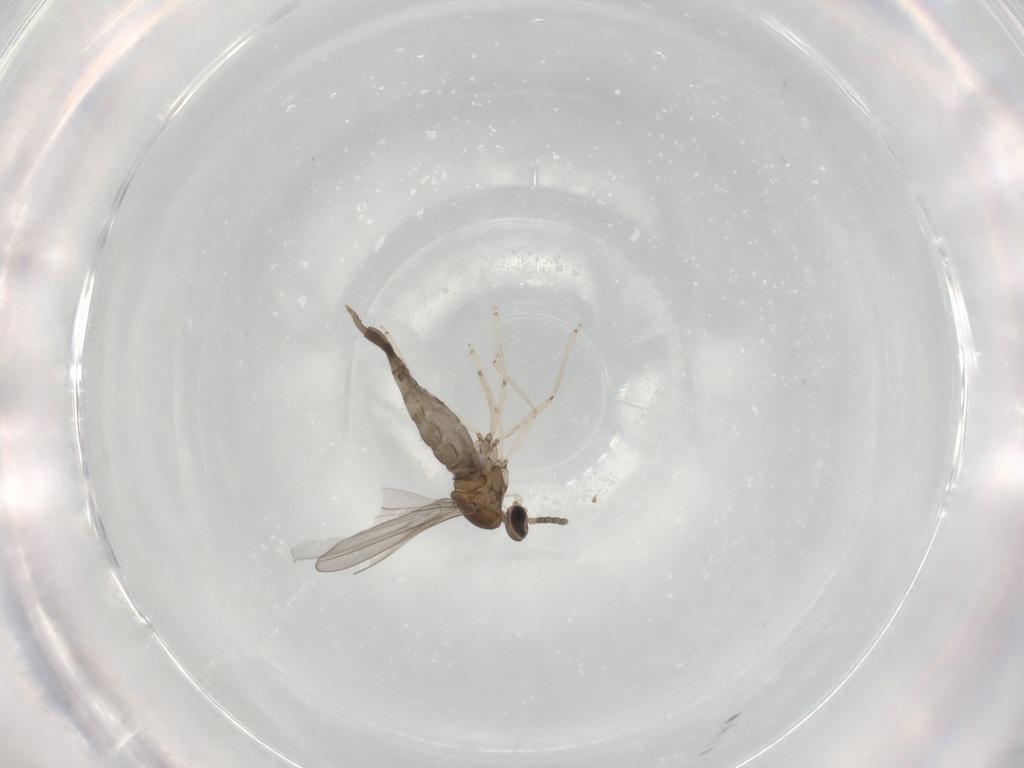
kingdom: Animalia
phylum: Arthropoda
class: Insecta
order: Diptera
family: Cecidomyiidae
